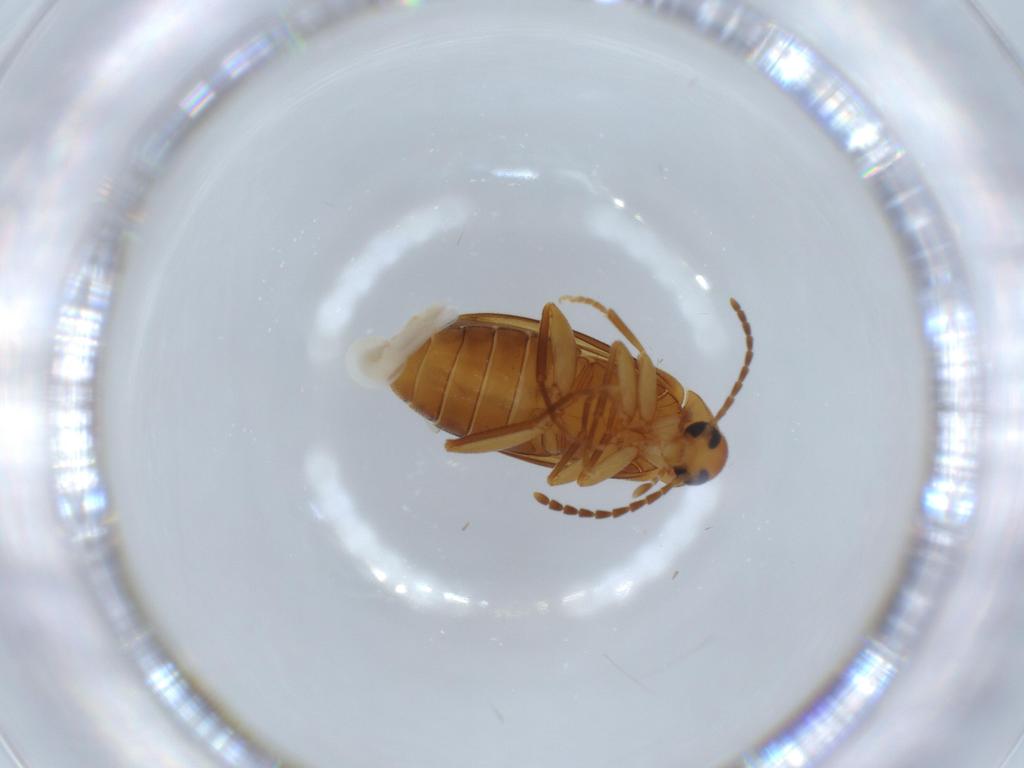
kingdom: Animalia
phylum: Arthropoda
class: Insecta
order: Coleoptera
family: Scraptiidae
